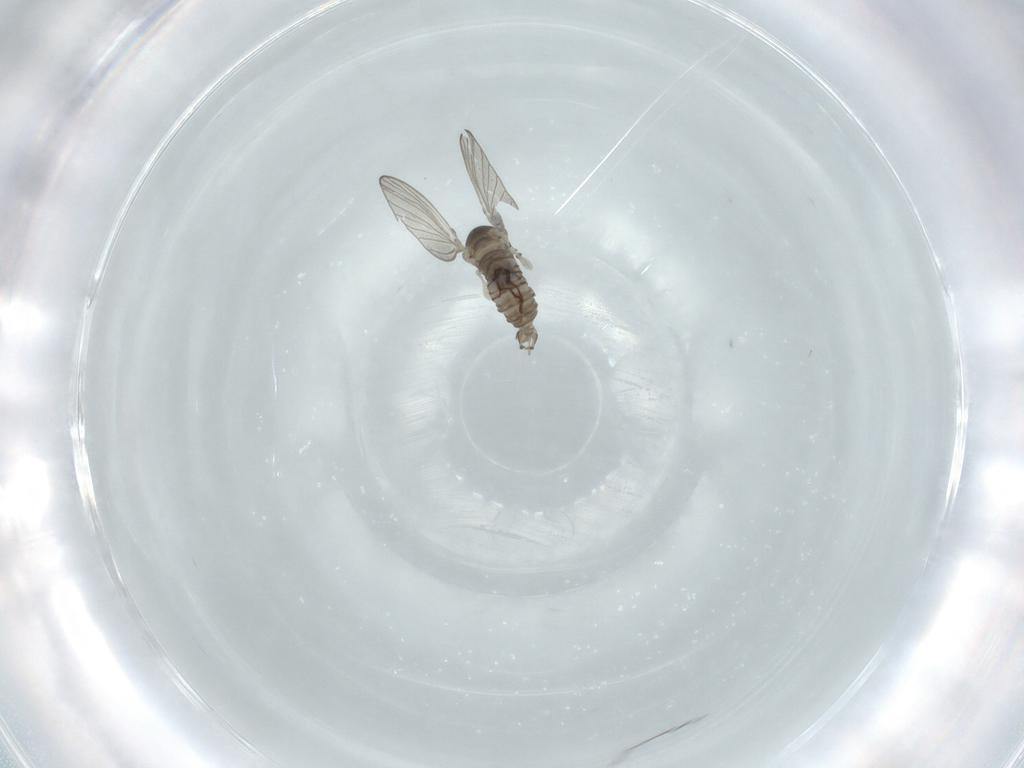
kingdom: Animalia
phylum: Arthropoda
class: Insecta
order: Diptera
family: Psychodidae
